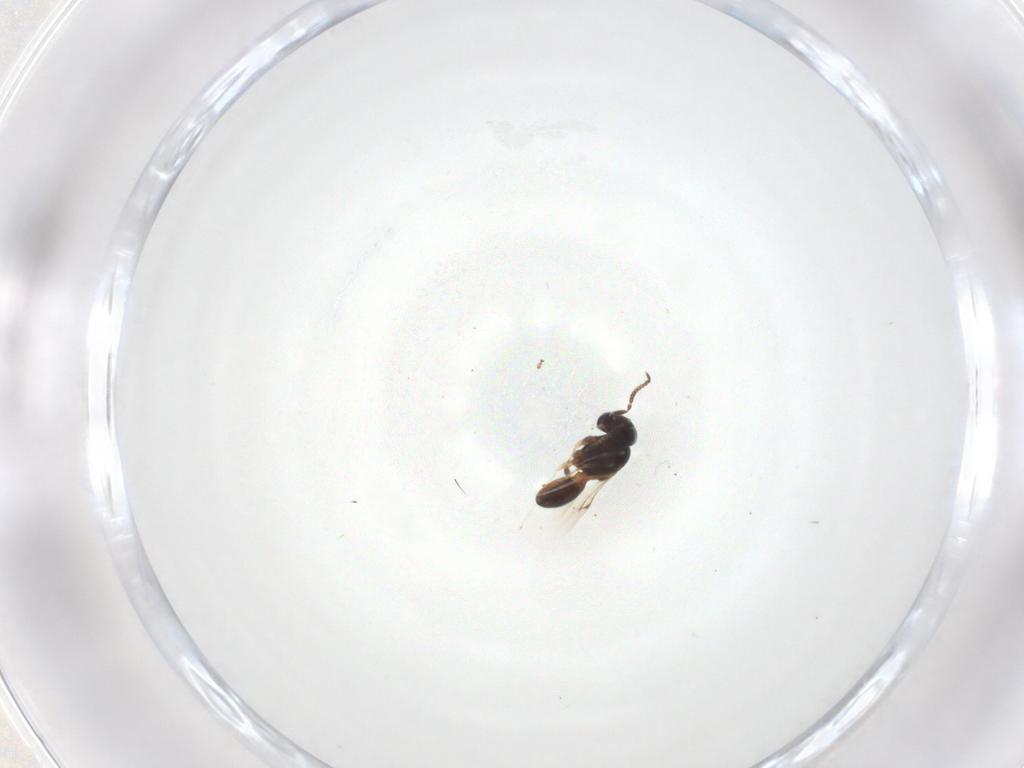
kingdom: Animalia
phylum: Arthropoda
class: Insecta
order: Hymenoptera
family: Scelionidae
